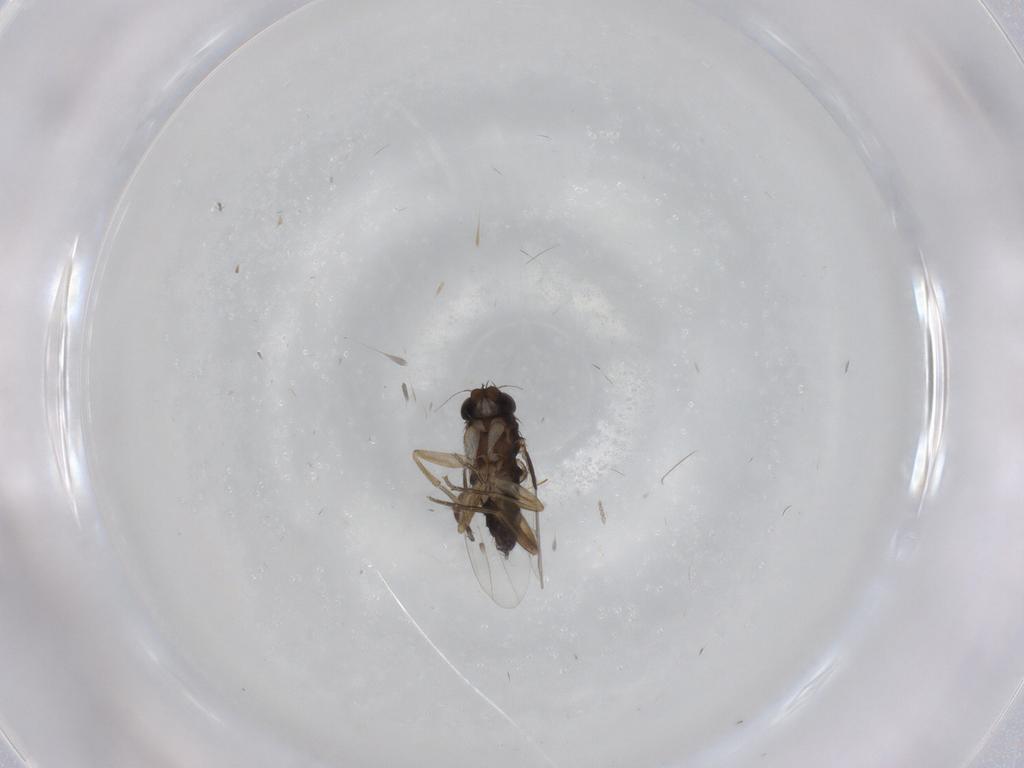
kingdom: Animalia
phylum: Arthropoda
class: Insecta
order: Diptera
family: Phoridae
